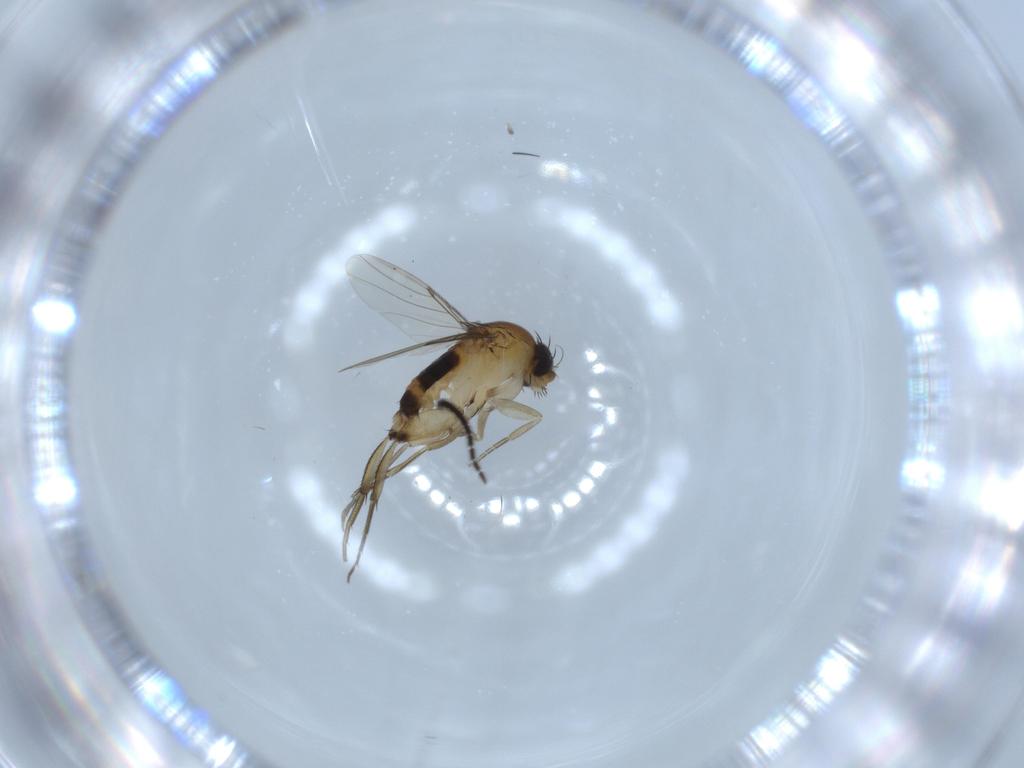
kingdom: Animalia
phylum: Arthropoda
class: Insecta
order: Diptera
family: Phoridae
